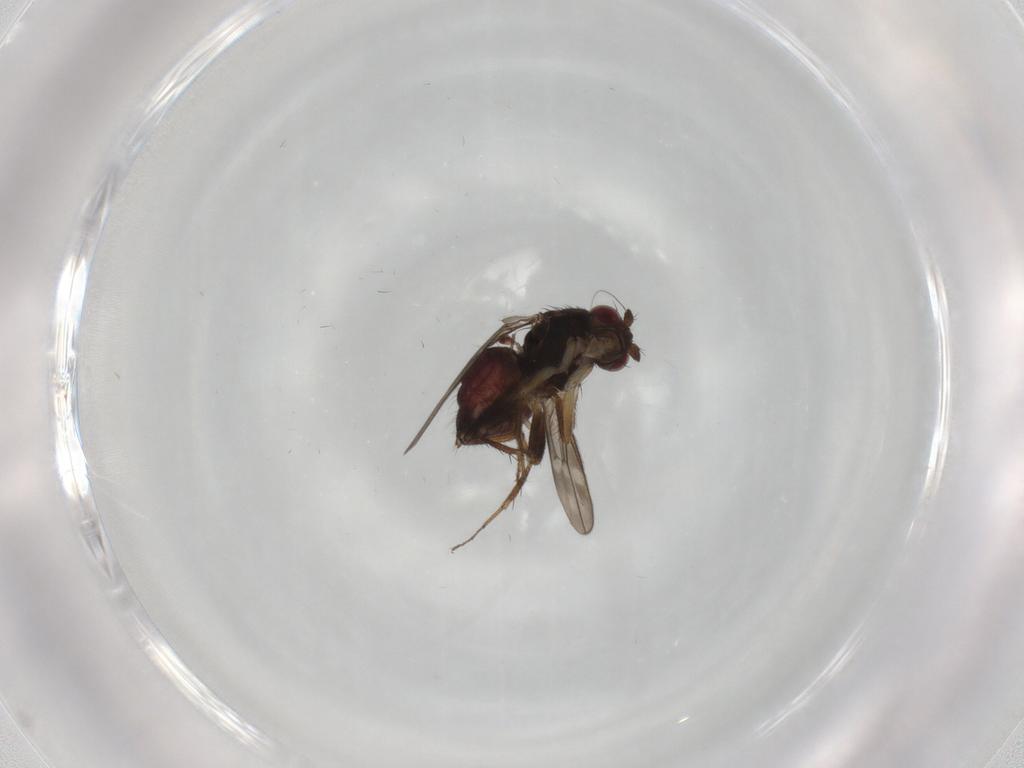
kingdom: Animalia
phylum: Arthropoda
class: Insecta
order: Diptera
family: Sphaeroceridae
